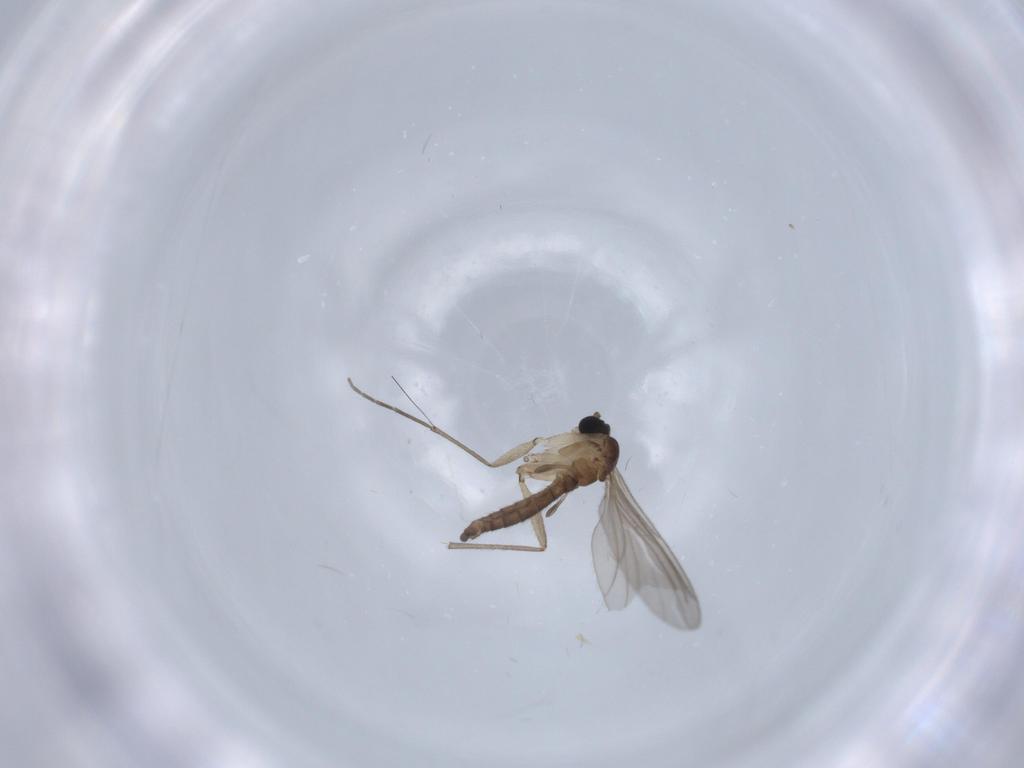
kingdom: Animalia
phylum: Arthropoda
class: Insecta
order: Diptera
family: Sciaridae
